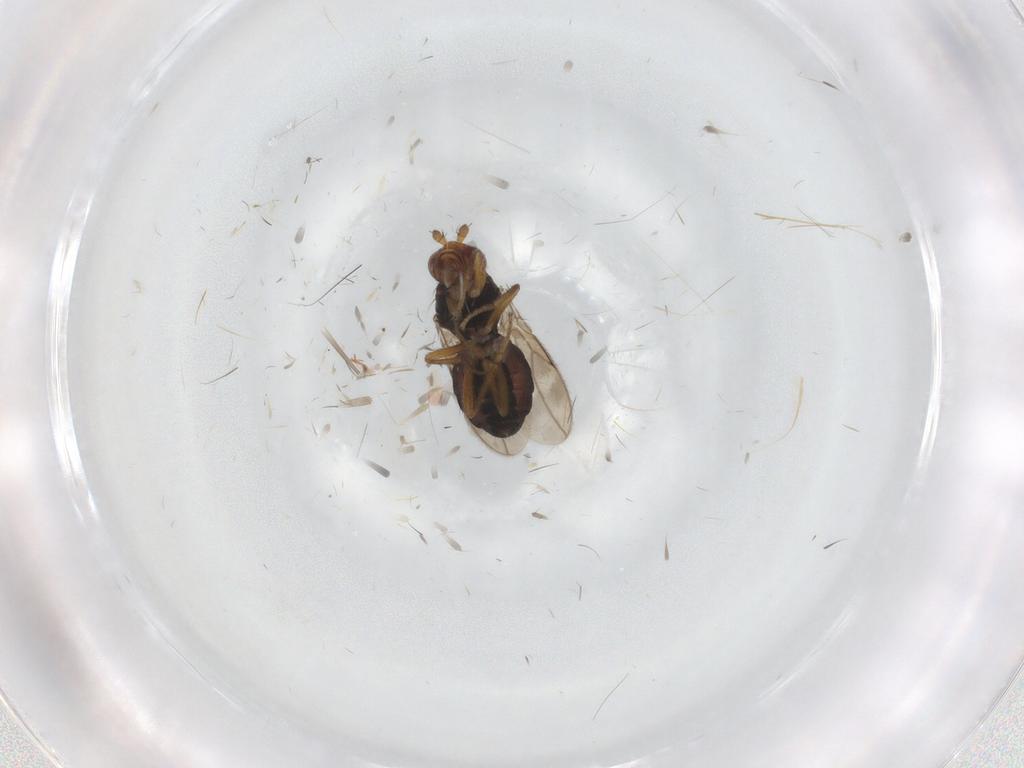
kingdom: Animalia
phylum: Arthropoda
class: Insecta
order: Diptera
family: Sphaeroceridae
